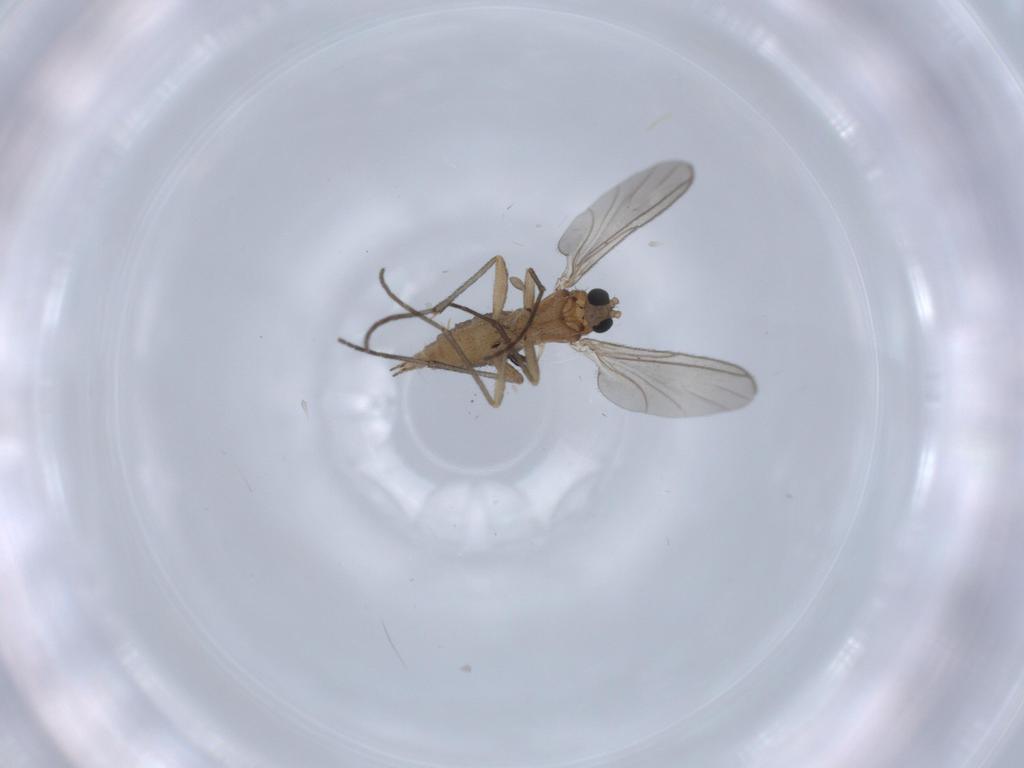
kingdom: Animalia
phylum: Arthropoda
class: Insecta
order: Diptera
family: Sciaridae
